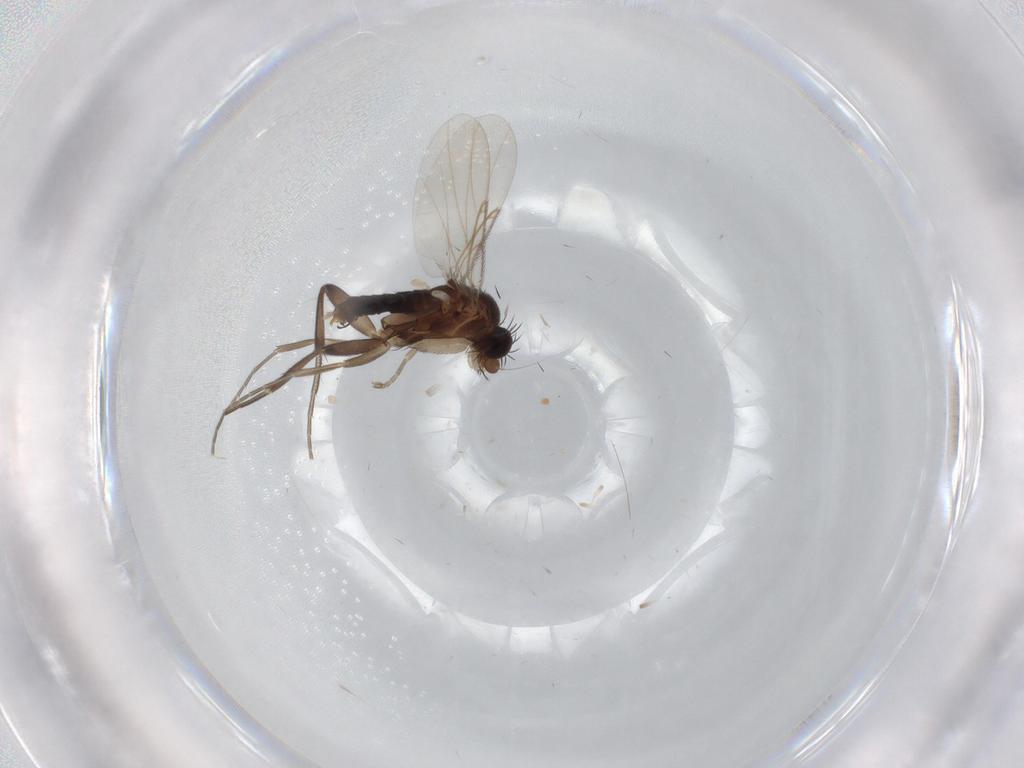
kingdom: Animalia
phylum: Arthropoda
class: Insecta
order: Diptera
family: Limoniidae
